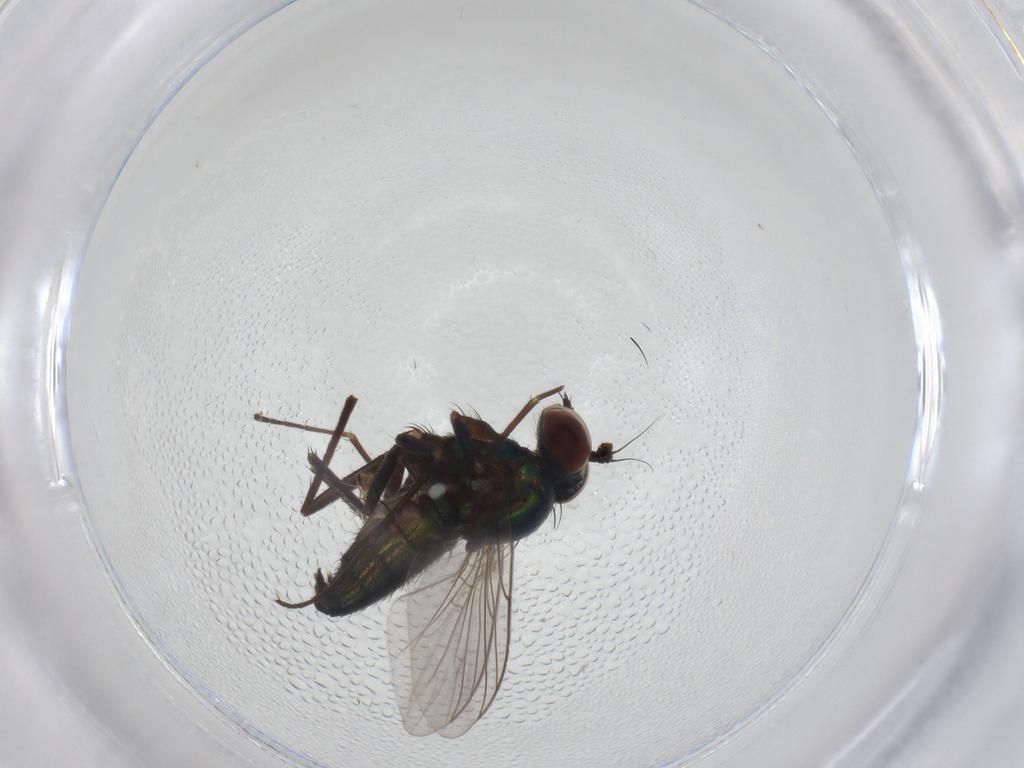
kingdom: Animalia
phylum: Arthropoda
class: Insecta
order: Diptera
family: Dolichopodidae
